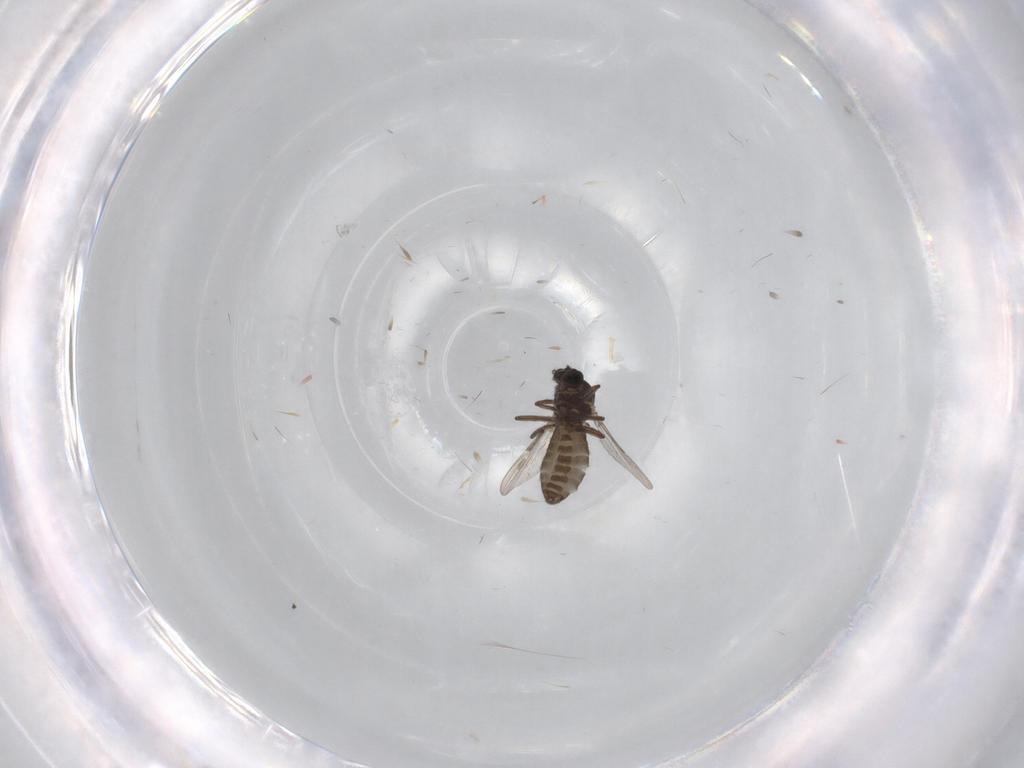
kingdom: Animalia
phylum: Arthropoda
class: Insecta
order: Diptera
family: Ceratopogonidae
